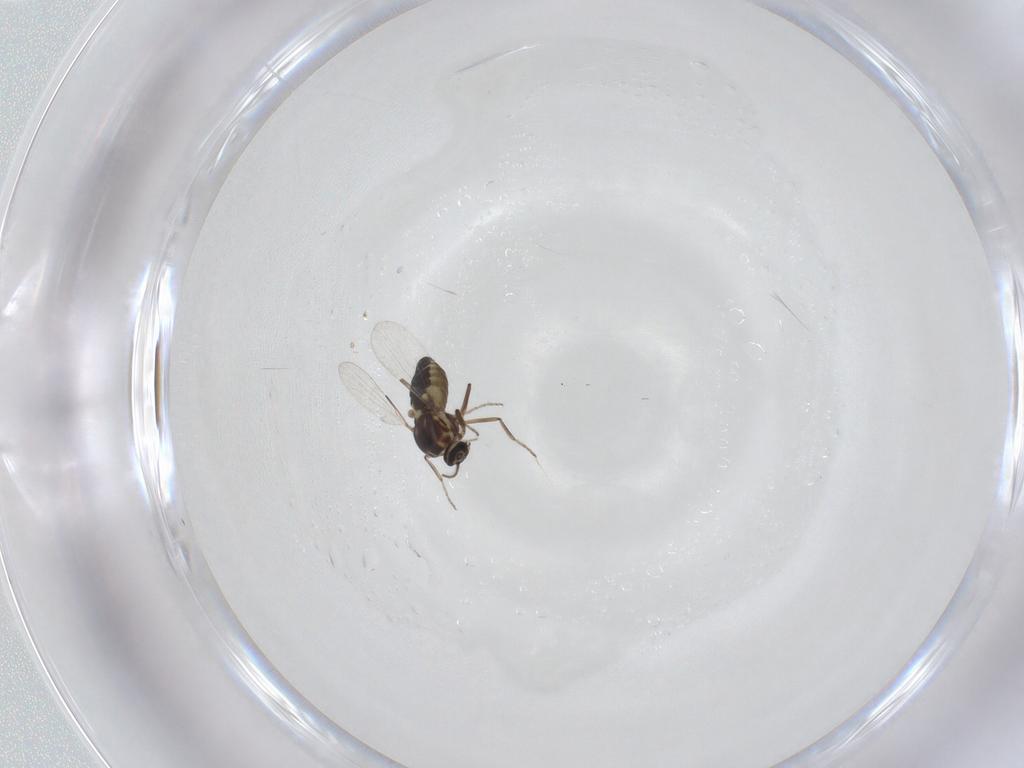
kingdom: Animalia
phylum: Arthropoda
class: Insecta
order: Diptera
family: Ceratopogonidae
